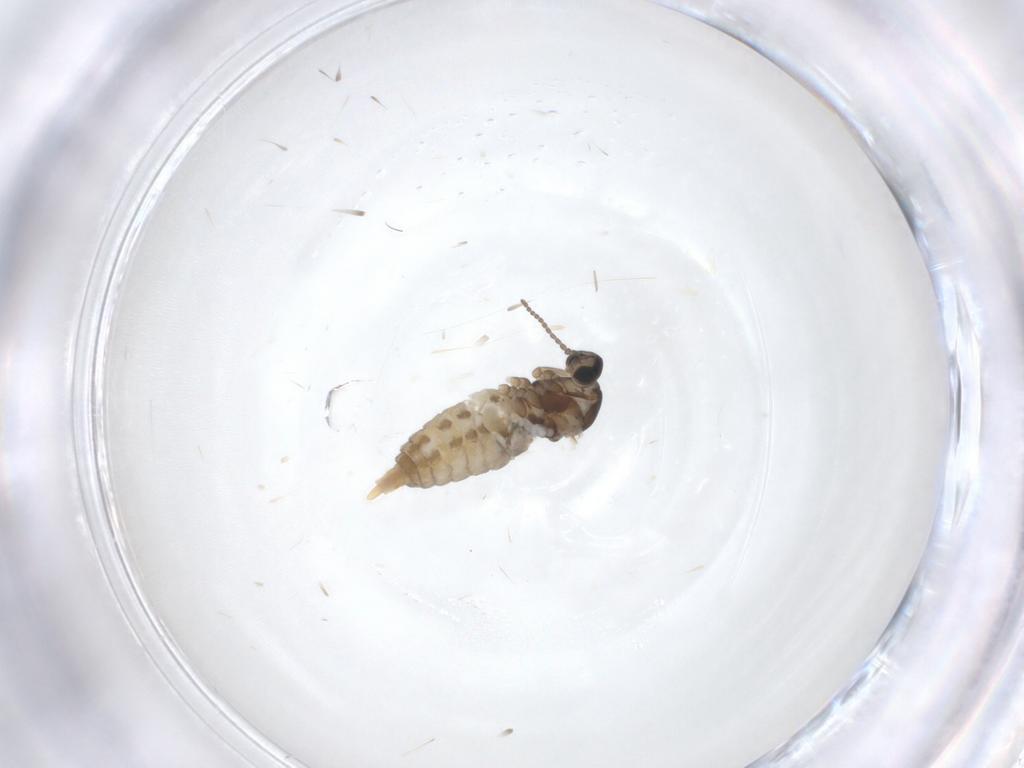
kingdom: Animalia
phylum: Arthropoda
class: Insecta
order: Diptera
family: Cecidomyiidae
